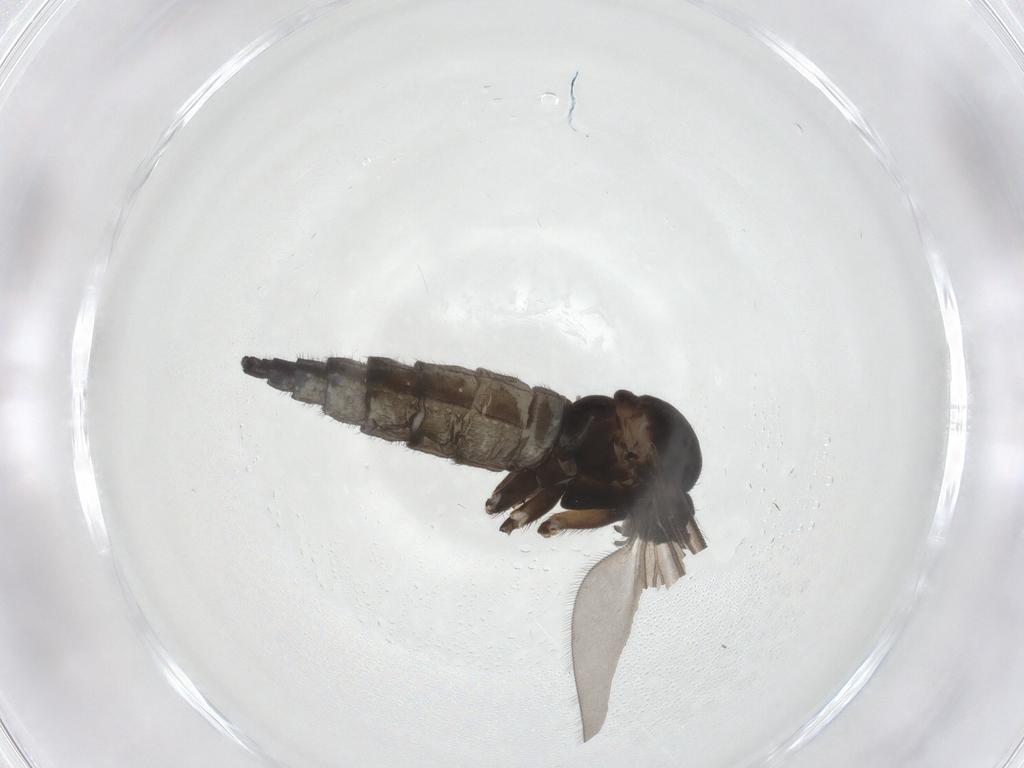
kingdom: Animalia
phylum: Arthropoda
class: Insecta
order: Diptera
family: Sciaridae
